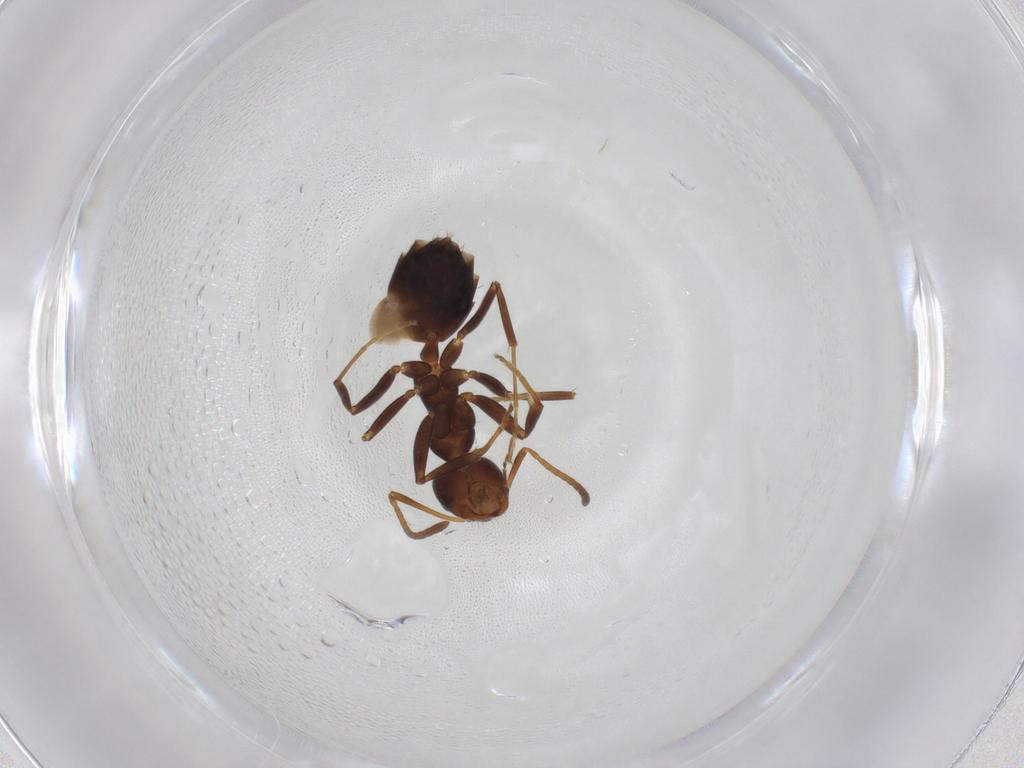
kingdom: Animalia
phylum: Arthropoda
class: Insecta
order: Hymenoptera
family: Formicidae
